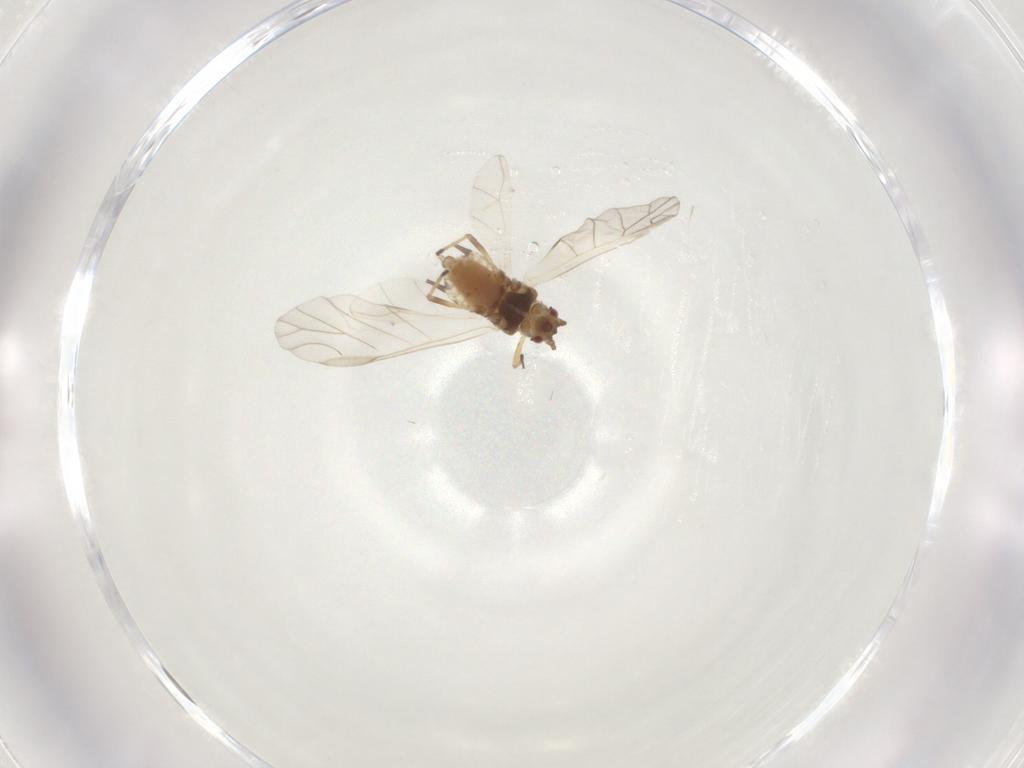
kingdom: Animalia
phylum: Arthropoda
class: Insecta
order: Hemiptera
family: Aphididae
